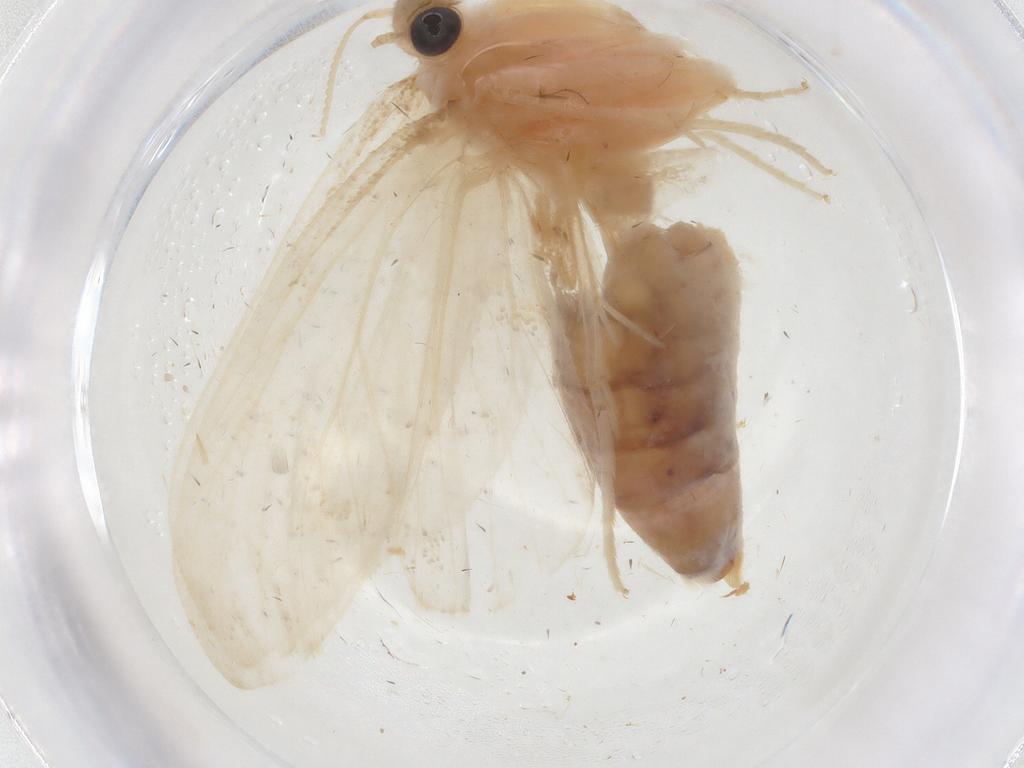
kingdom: Animalia
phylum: Arthropoda
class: Insecta
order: Lepidoptera
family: Crambidae
